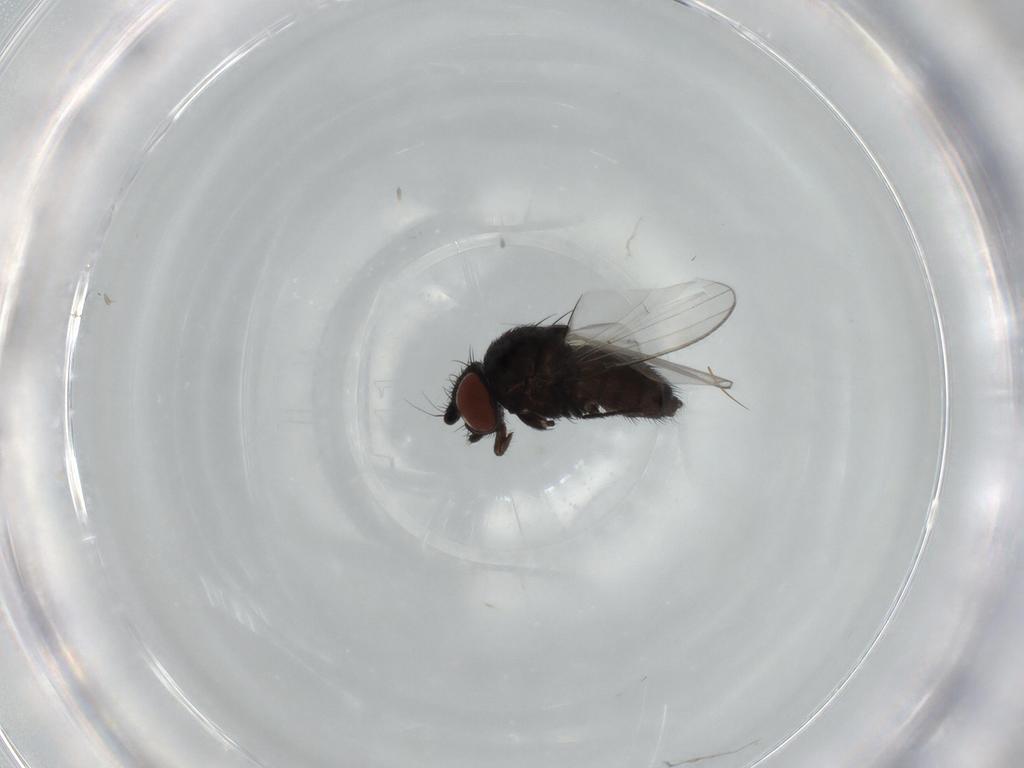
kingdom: Animalia
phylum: Arthropoda
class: Insecta
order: Diptera
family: Milichiidae
